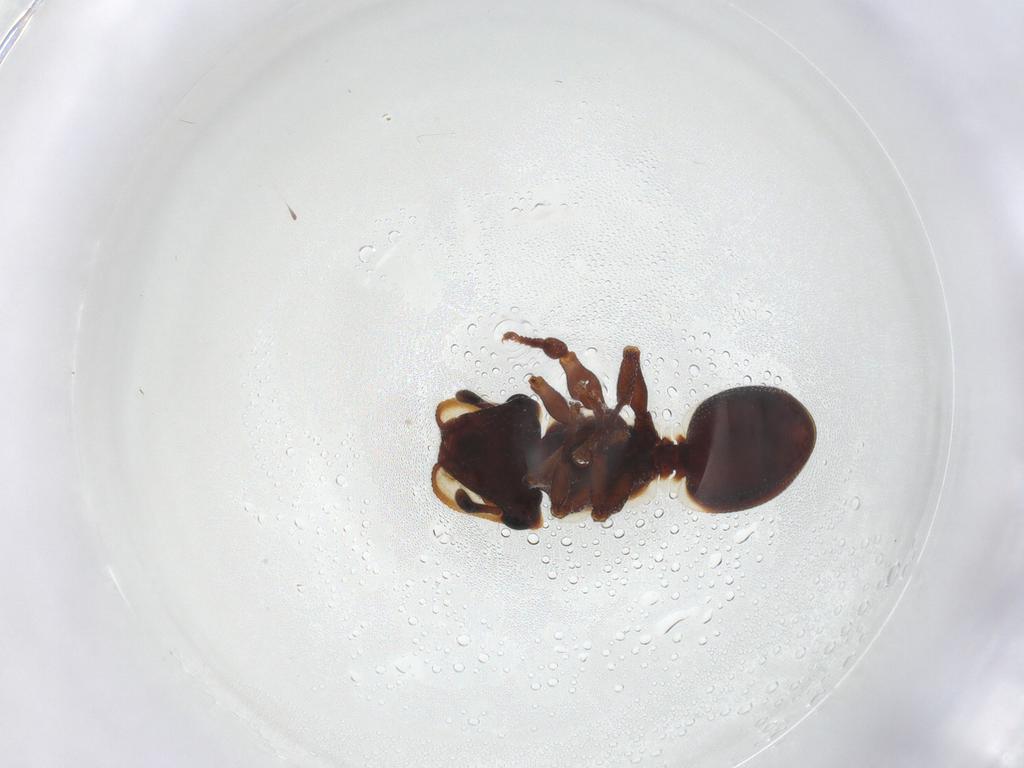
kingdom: Animalia
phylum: Arthropoda
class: Insecta
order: Hymenoptera
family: Formicidae
